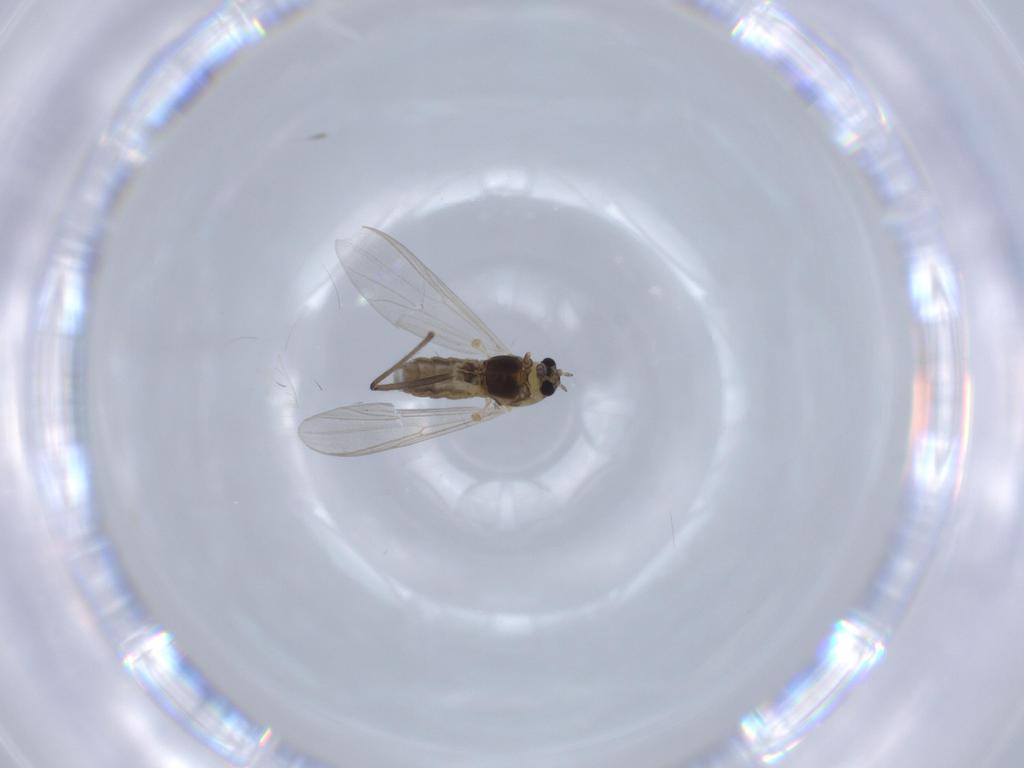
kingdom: Animalia
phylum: Arthropoda
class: Insecta
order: Diptera
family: Chironomidae
